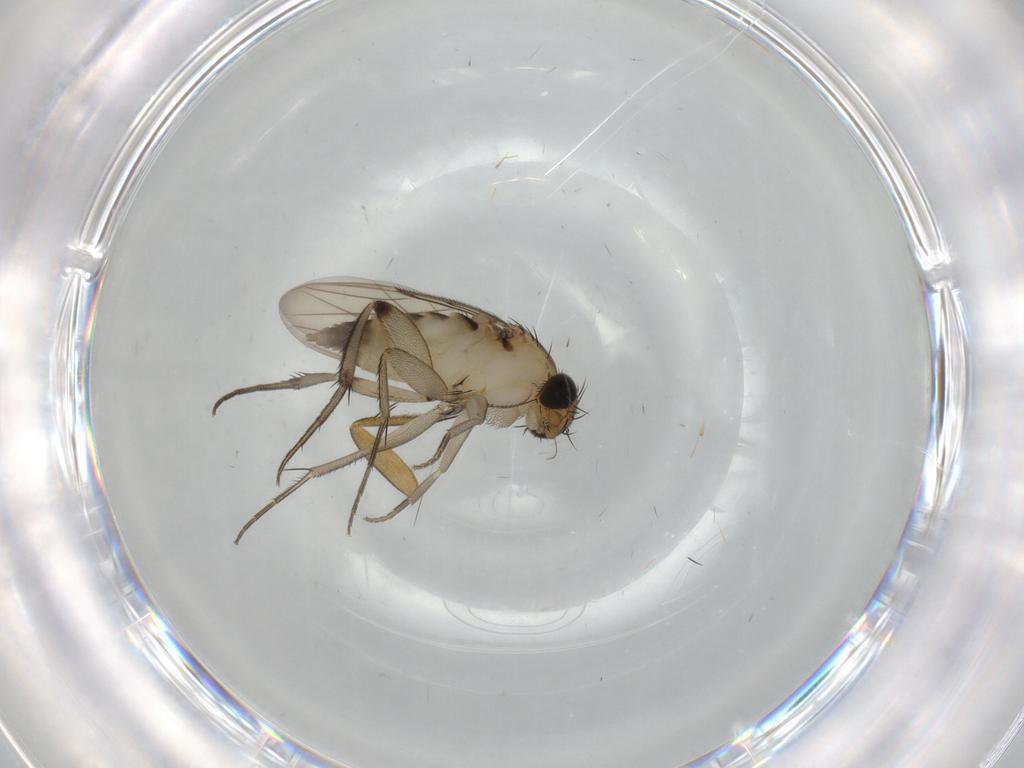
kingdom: Animalia
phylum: Arthropoda
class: Insecta
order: Diptera
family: Phoridae
